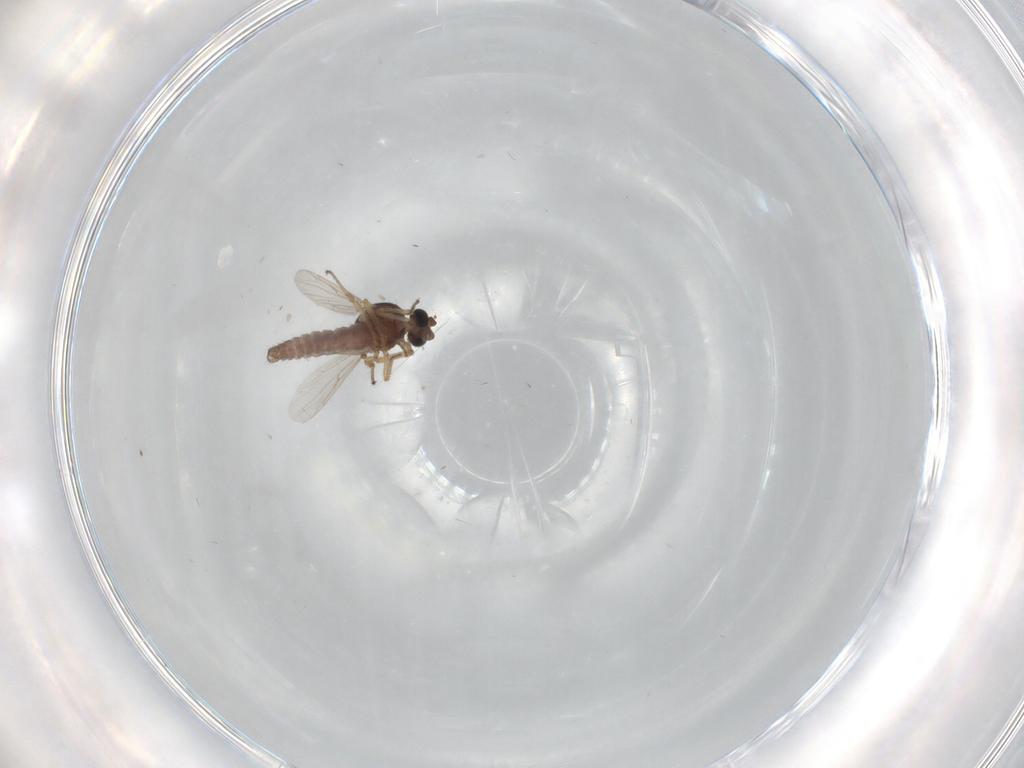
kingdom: Animalia
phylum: Arthropoda
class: Insecta
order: Diptera
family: Ceratopogonidae
